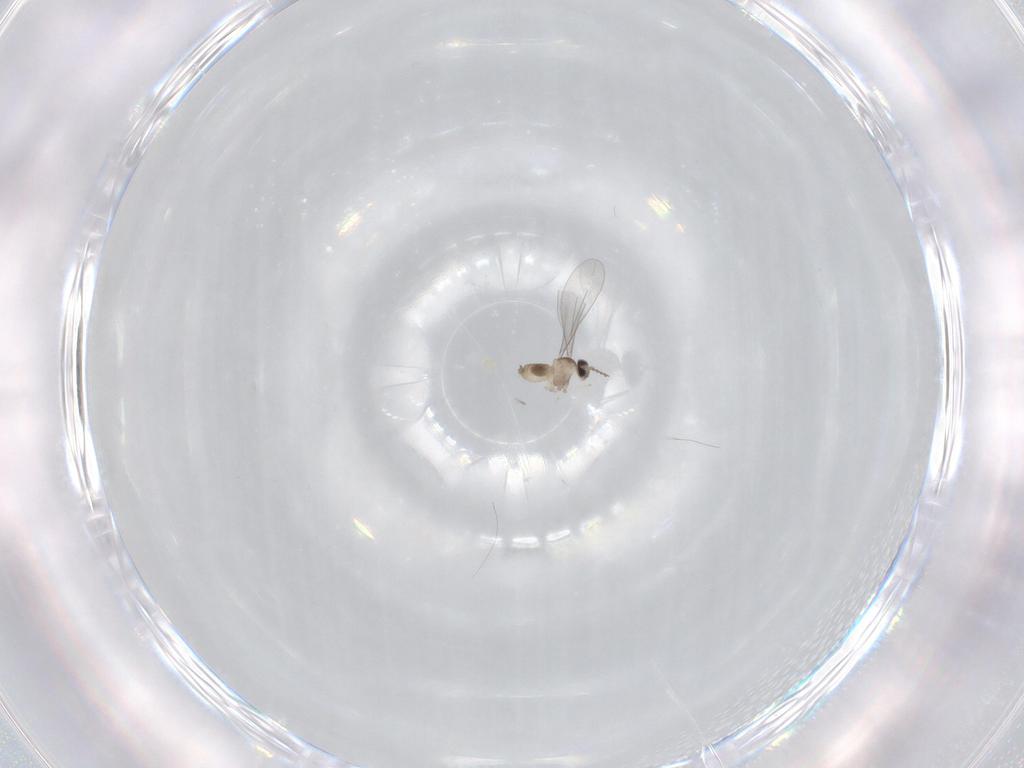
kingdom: Animalia
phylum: Arthropoda
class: Insecta
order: Diptera
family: Cecidomyiidae
